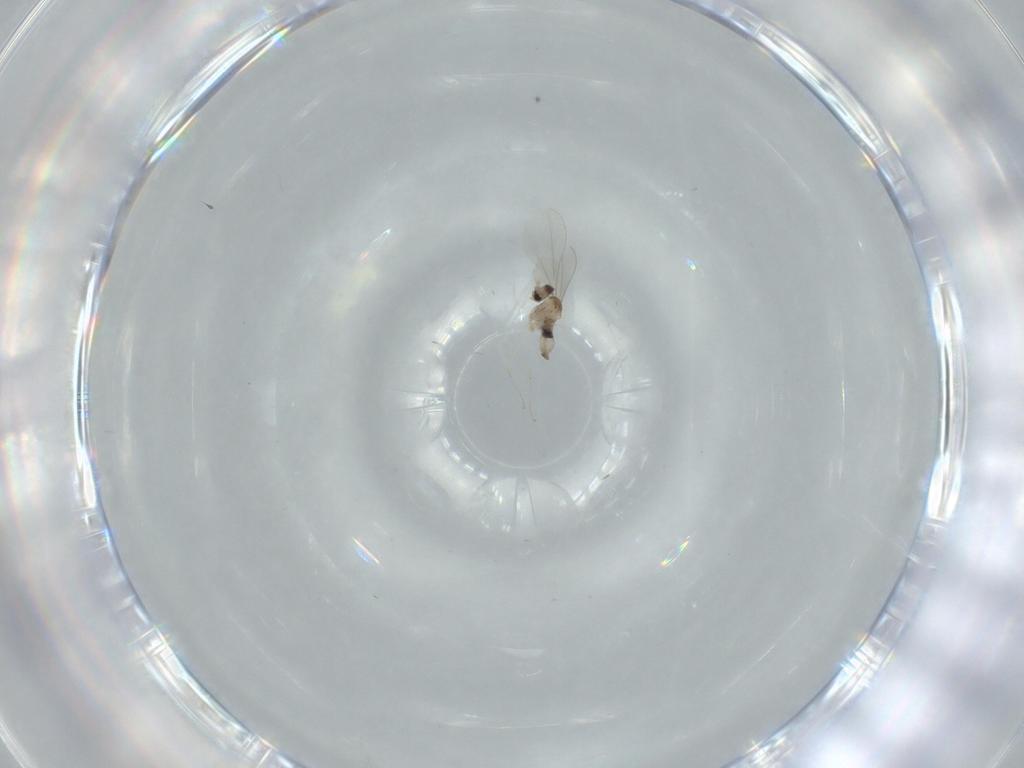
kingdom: Animalia
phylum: Arthropoda
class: Insecta
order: Diptera
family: Cecidomyiidae
